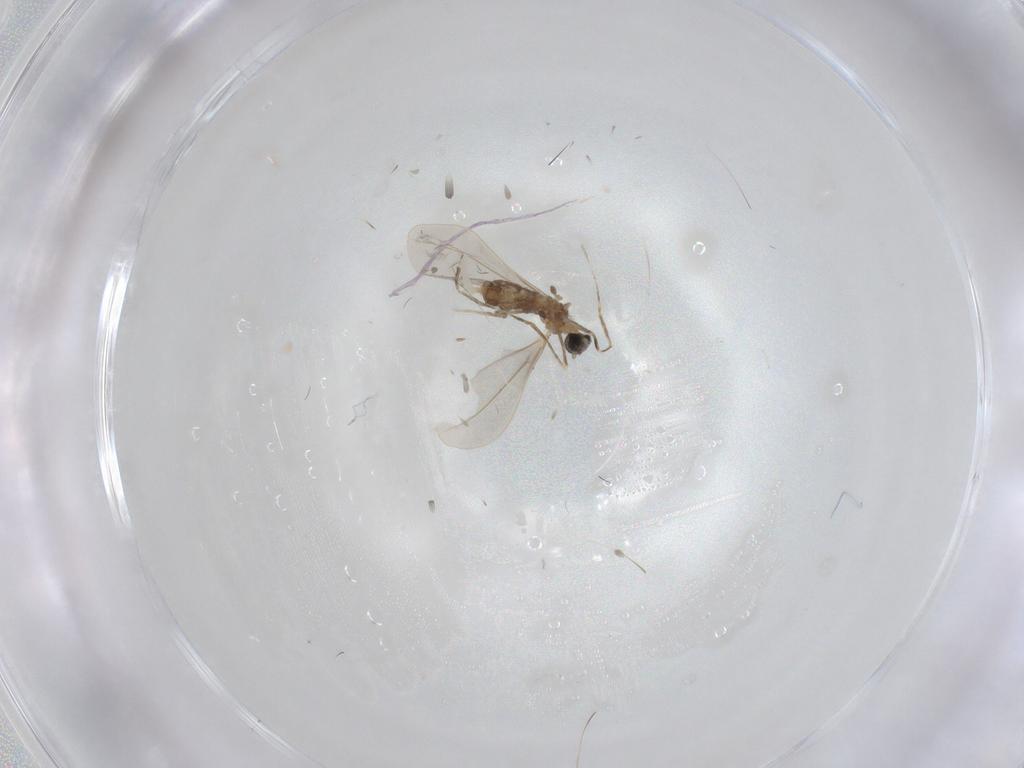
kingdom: Animalia
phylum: Arthropoda
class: Insecta
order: Diptera
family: Cecidomyiidae
